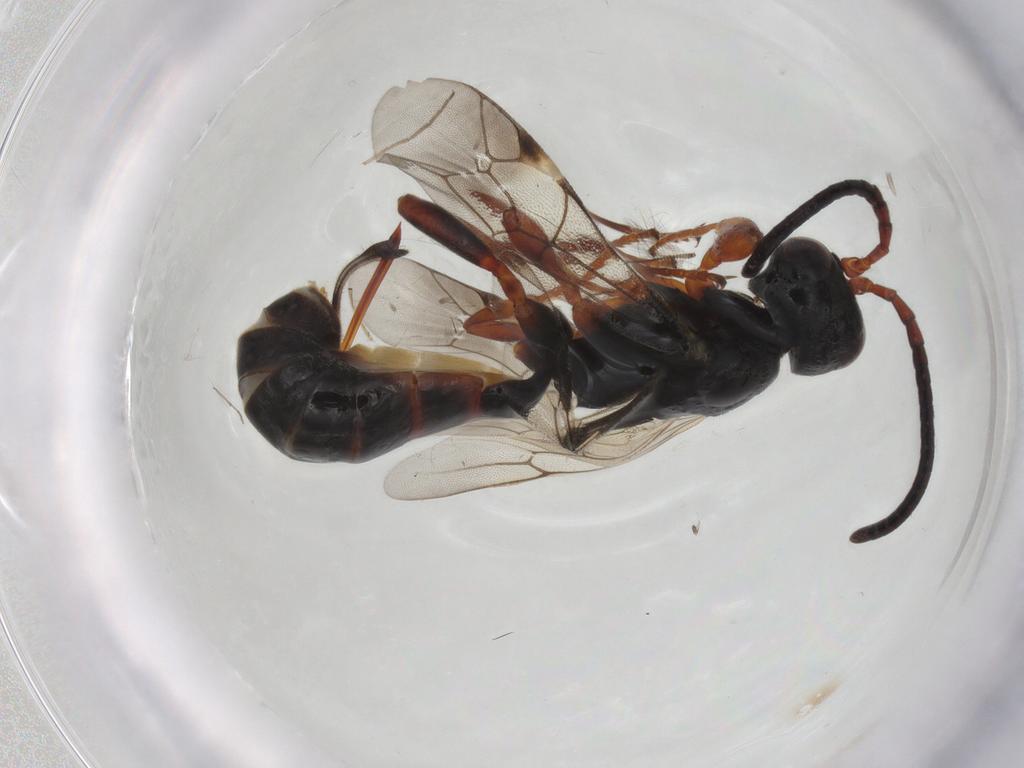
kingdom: Animalia
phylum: Arthropoda
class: Insecta
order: Hymenoptera
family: Ichneumonidae
